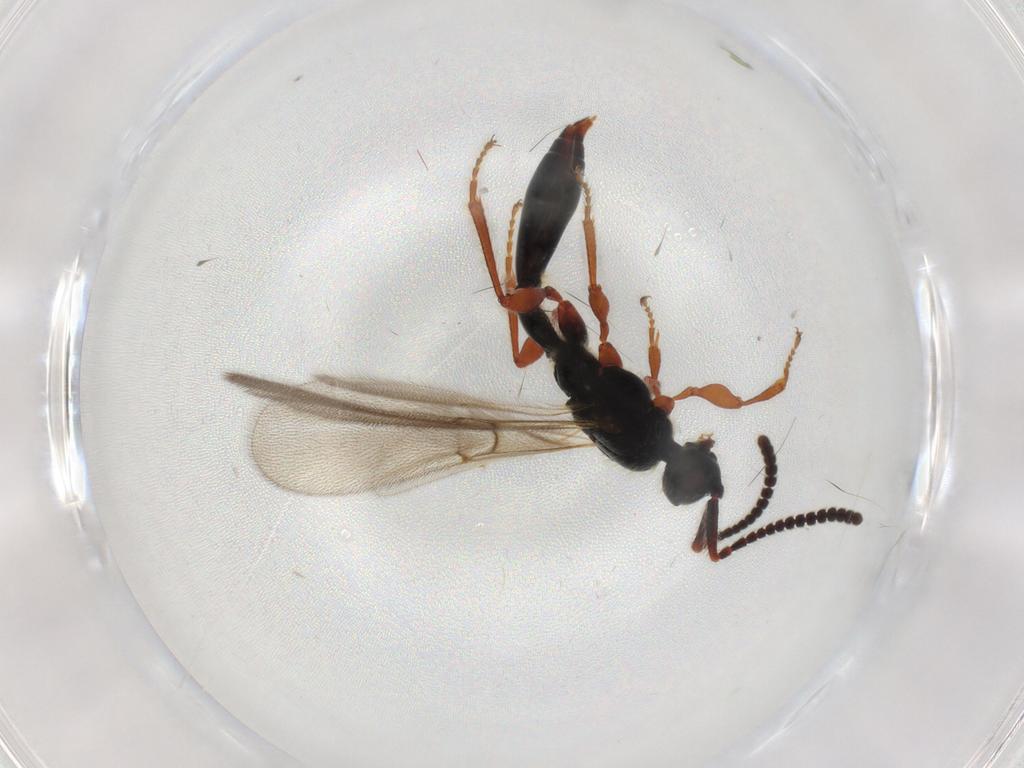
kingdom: Animalia
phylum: Arthropoda
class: Insecta
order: Hymenoptera
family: Diapriidae
